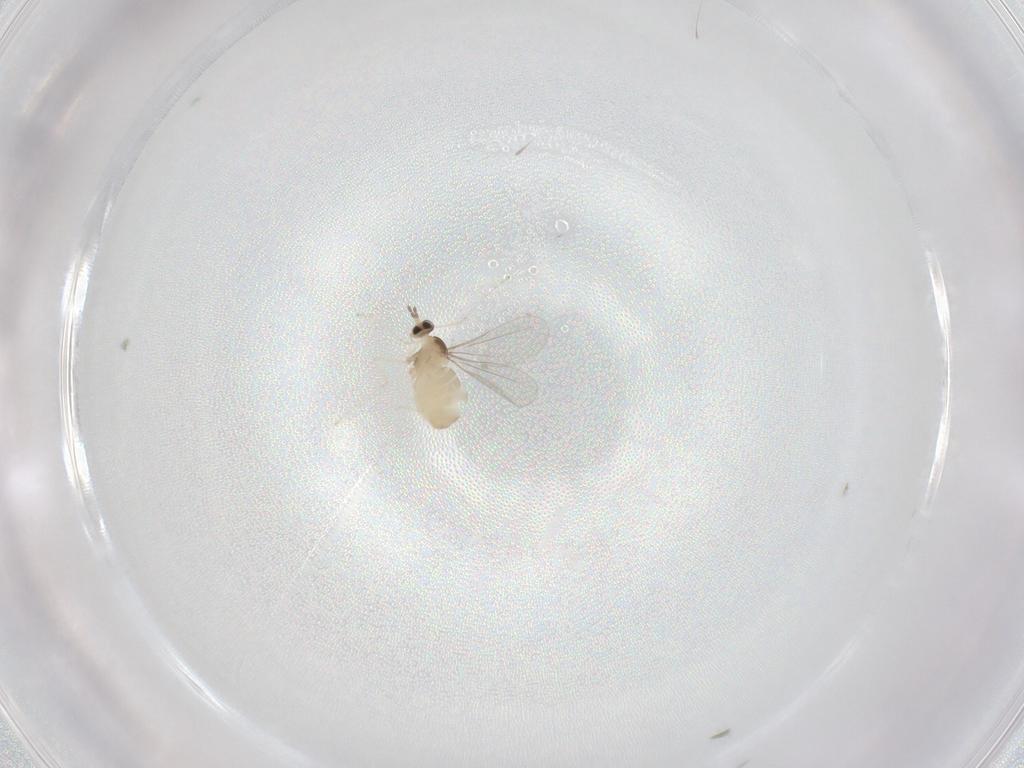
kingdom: Animalia
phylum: Arthropoda
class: Insecta
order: Diptera
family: Cecidomyiidae
